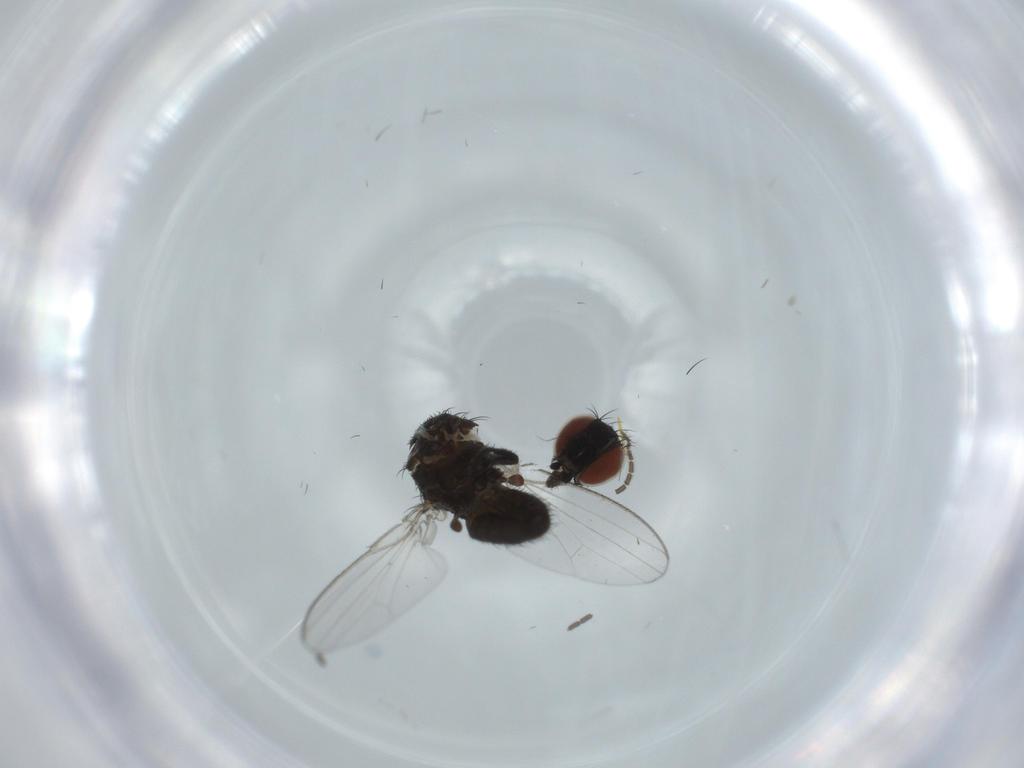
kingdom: Animalia
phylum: Arthropoda
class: Insecta
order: Diptera
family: Milichiidae
